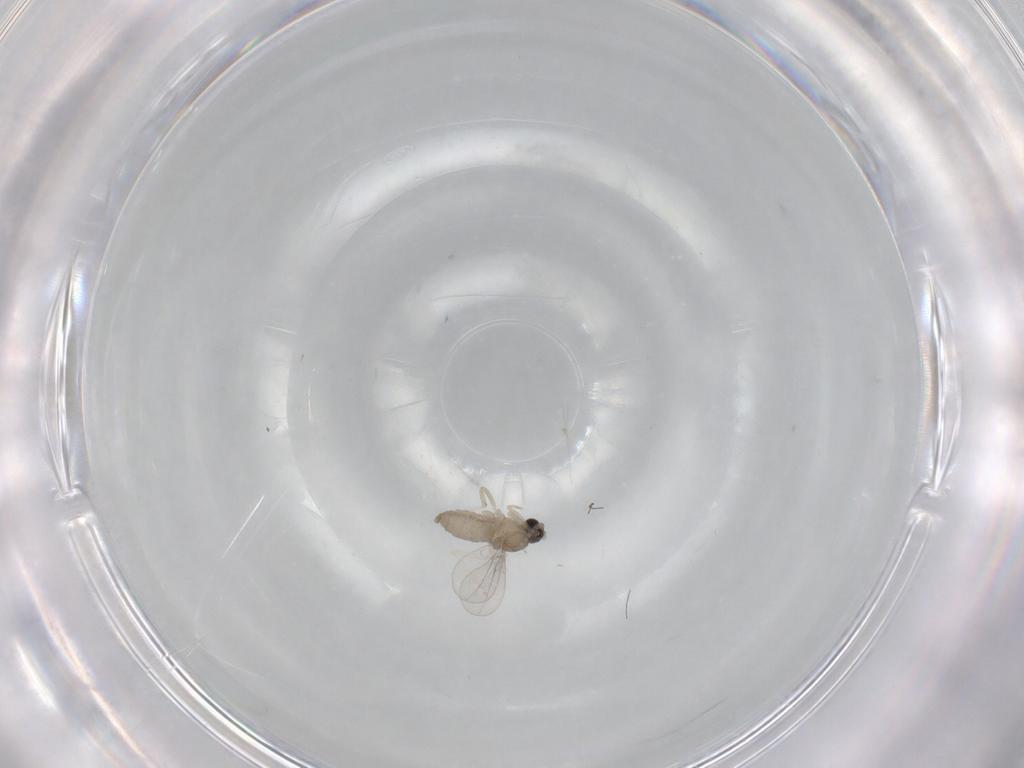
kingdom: Animalia
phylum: Arthropoda
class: Insecta
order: Diptera
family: Cecidomyiidae
